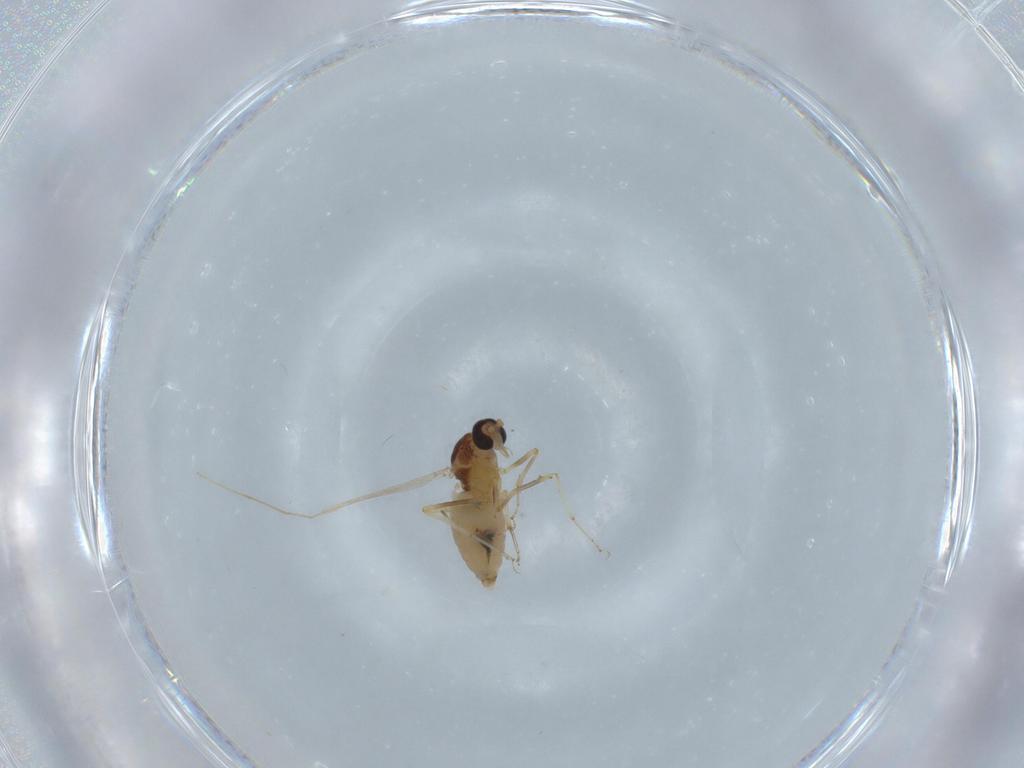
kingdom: Animalia
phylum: Arthropoda
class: Insecta
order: Diptera
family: Ceratopogonidae
